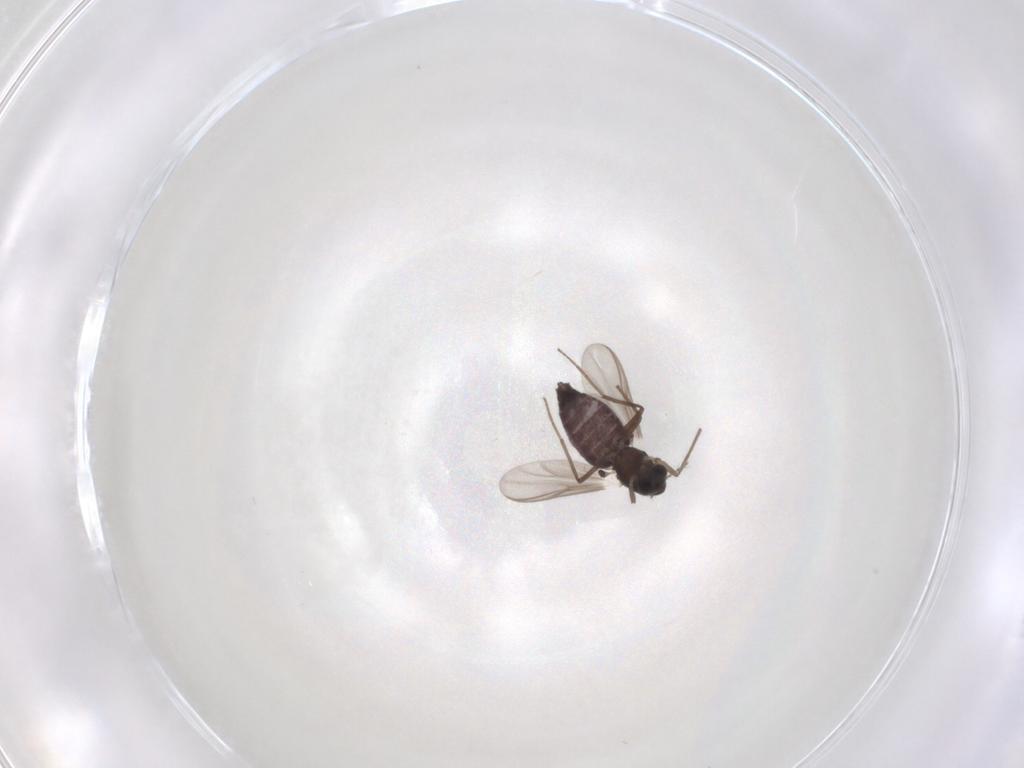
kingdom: Animalia
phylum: Arthropoda
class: Insecta
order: Diptera
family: Chironomidae
